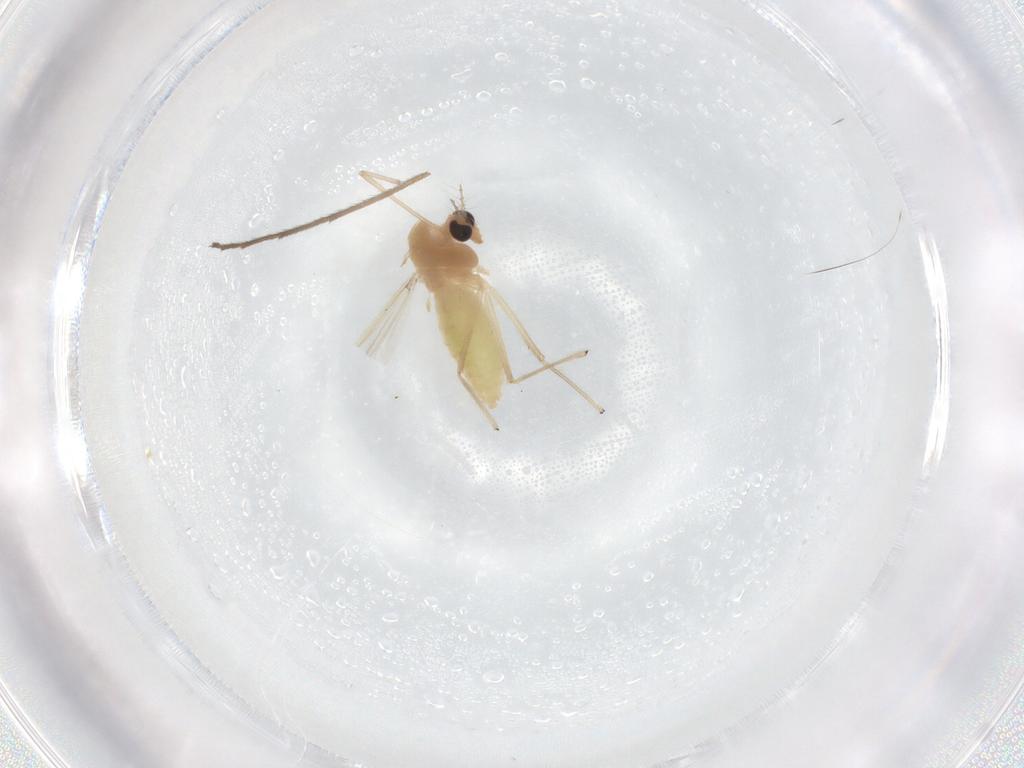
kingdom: Animalia
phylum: Arthropoda
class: Insecta
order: Diptera
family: Chironomidae
